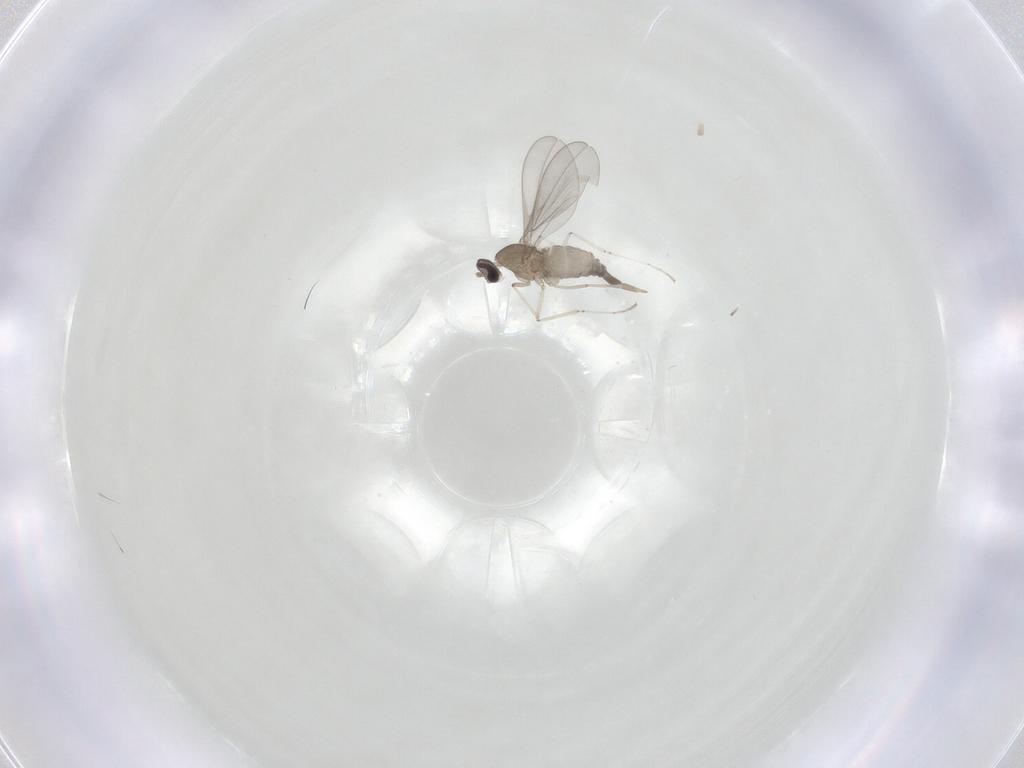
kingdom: Animalia
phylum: Arthropoda
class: Insecta
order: Diptera
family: Cecidomyiidae
